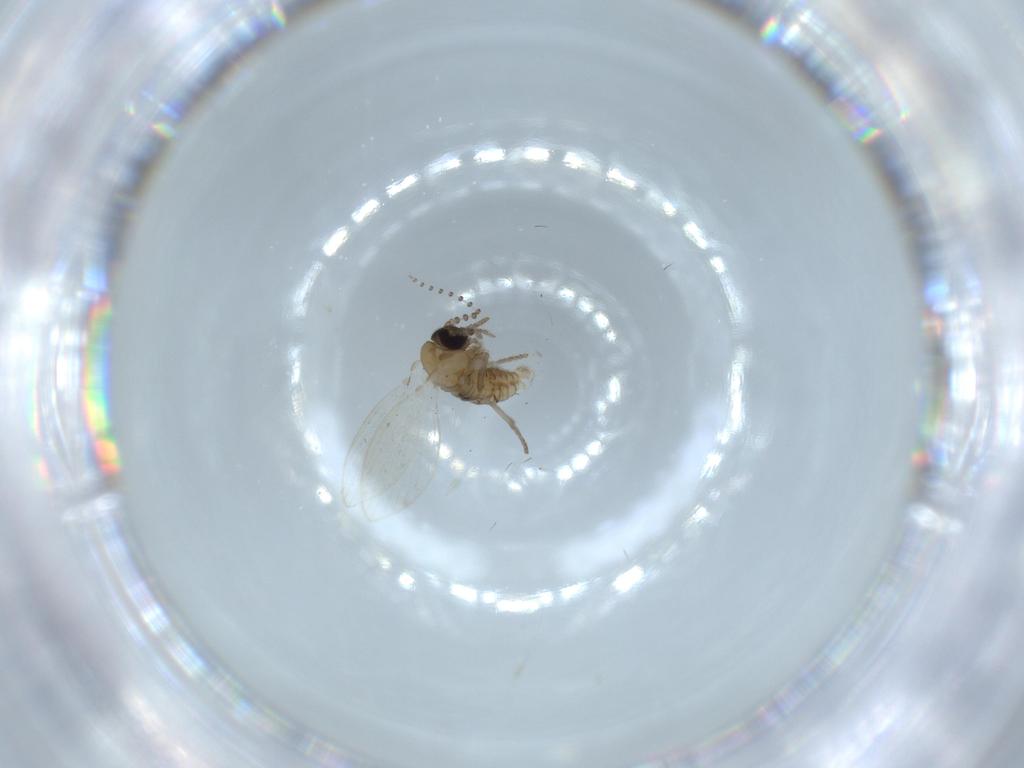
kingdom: Animalia
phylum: Arthropoda
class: Insecta
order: Diptera
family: Psychodidae
